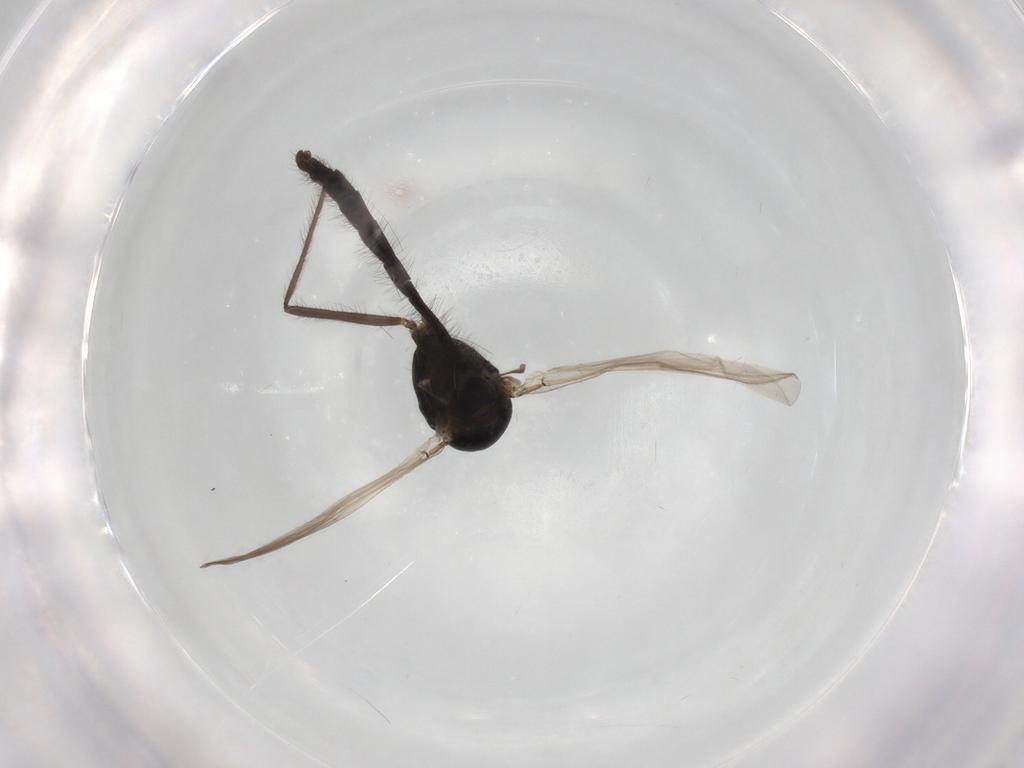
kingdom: Animalia
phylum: Arthropoda
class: Insecta
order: Diptera
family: Chironomidae
